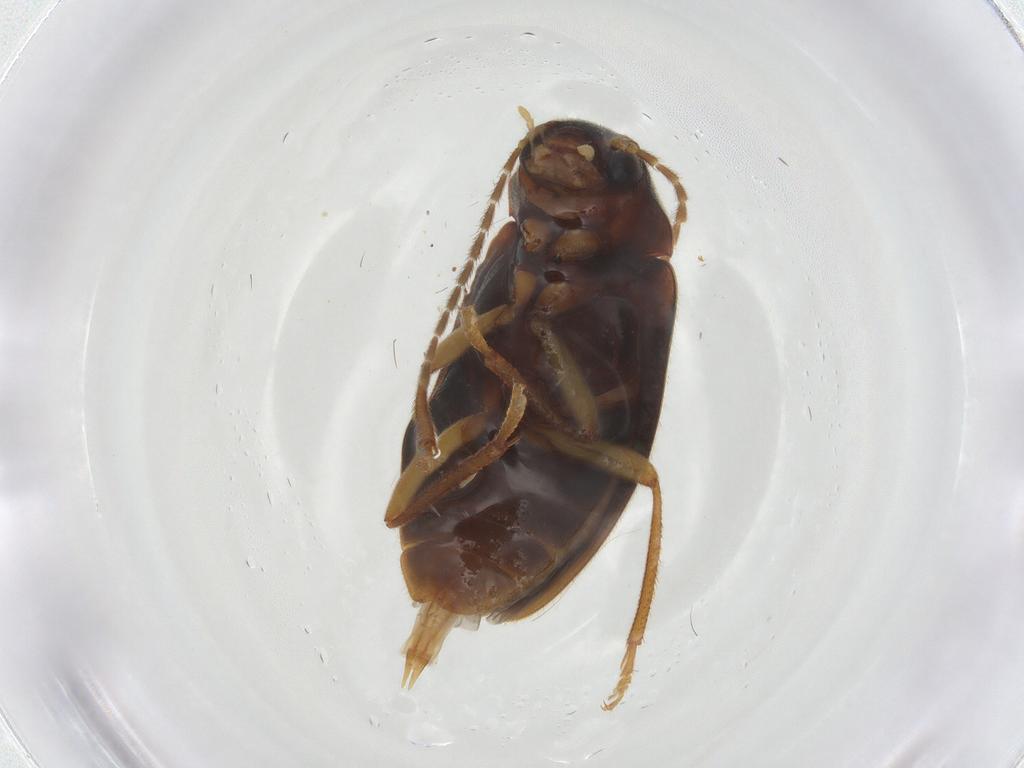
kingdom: Animalia
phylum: Arthropoda
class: Insecta
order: Coleoptera
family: Ptilodactylidae
